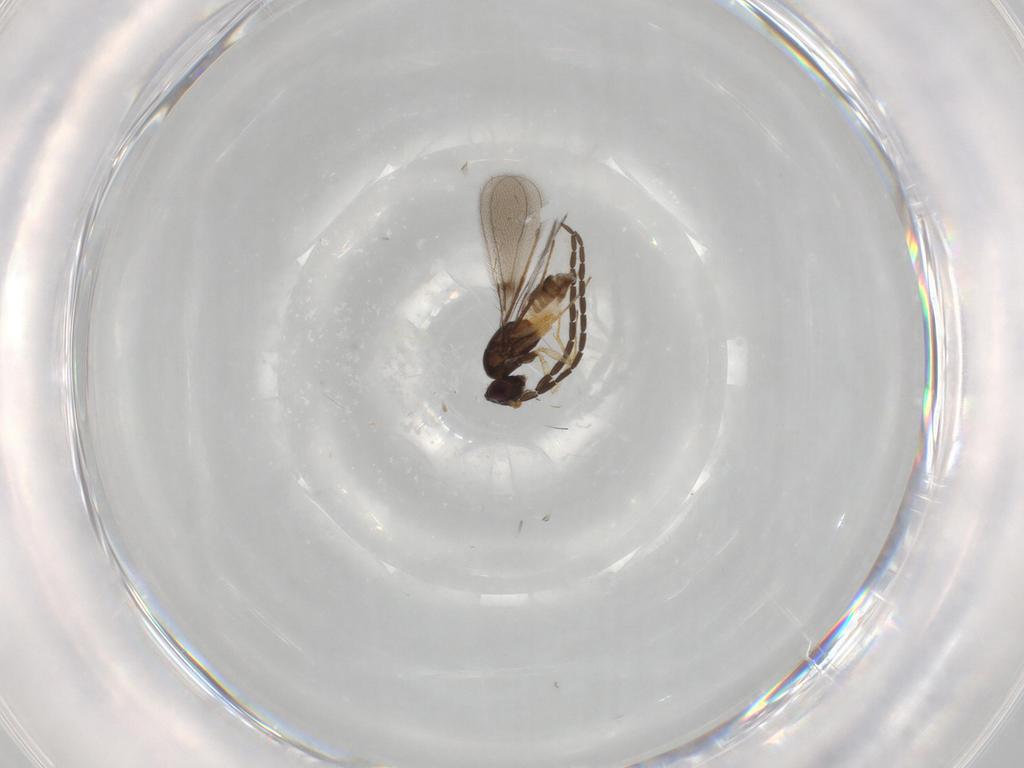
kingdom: Animalia
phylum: Arthropoda
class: Insecta
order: Hymenoptera
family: Mymaridae
